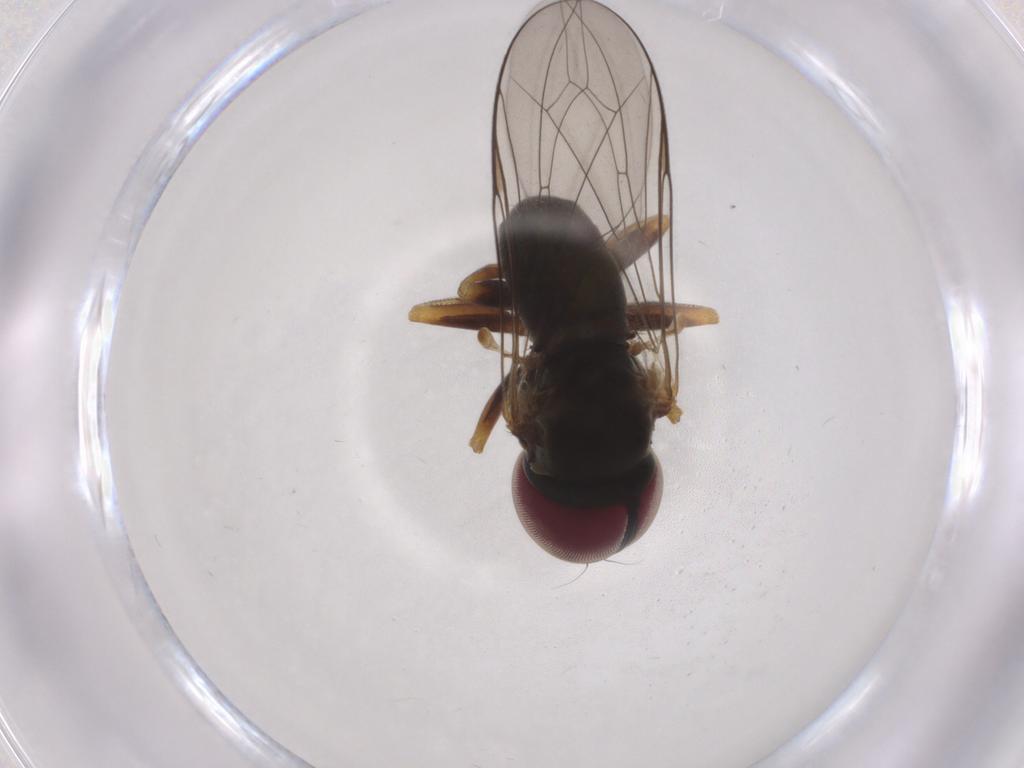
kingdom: Animalia
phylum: Arthropoda
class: Insecta
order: Diptera
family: Pipunculidae
